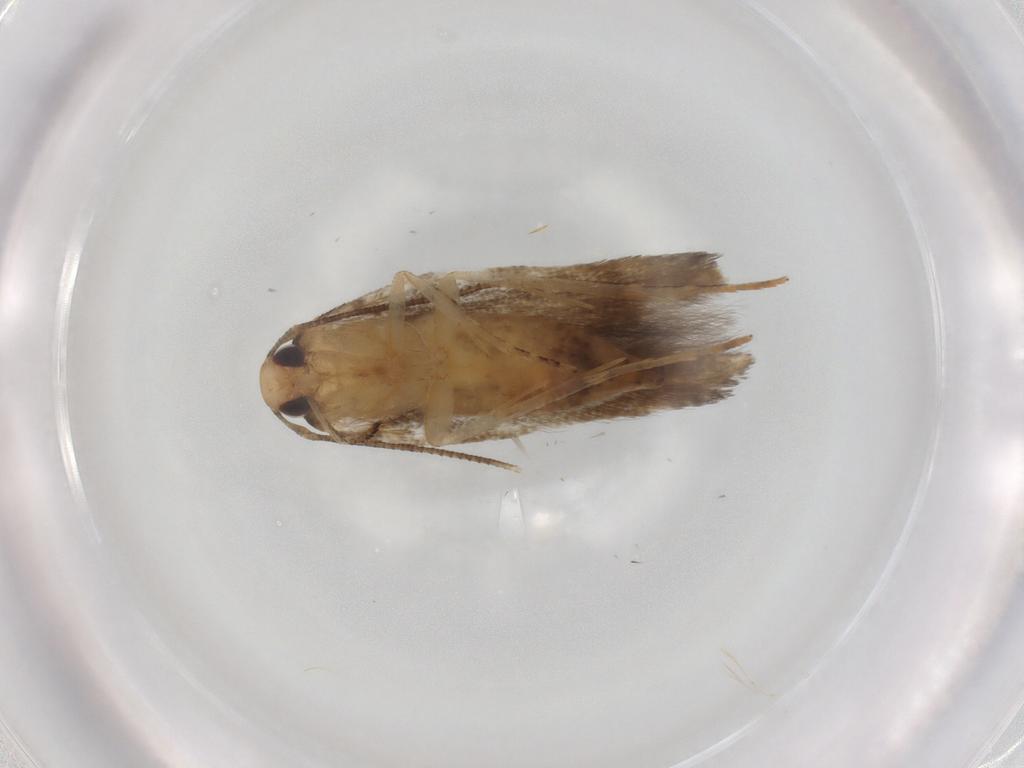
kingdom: Animalia
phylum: Arthropoda
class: Insecta
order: Lepidoptera
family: Cosmopterigidae
